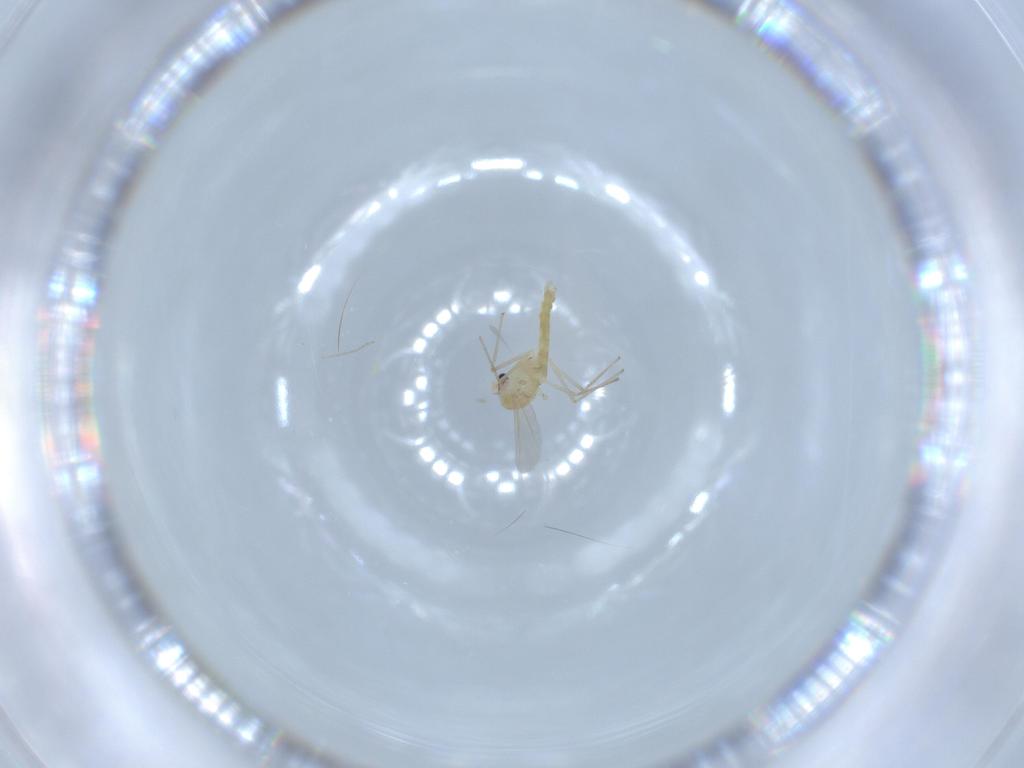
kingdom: Animalia
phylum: Arthropoda
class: Insecta
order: Diptera
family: Chironomidae
